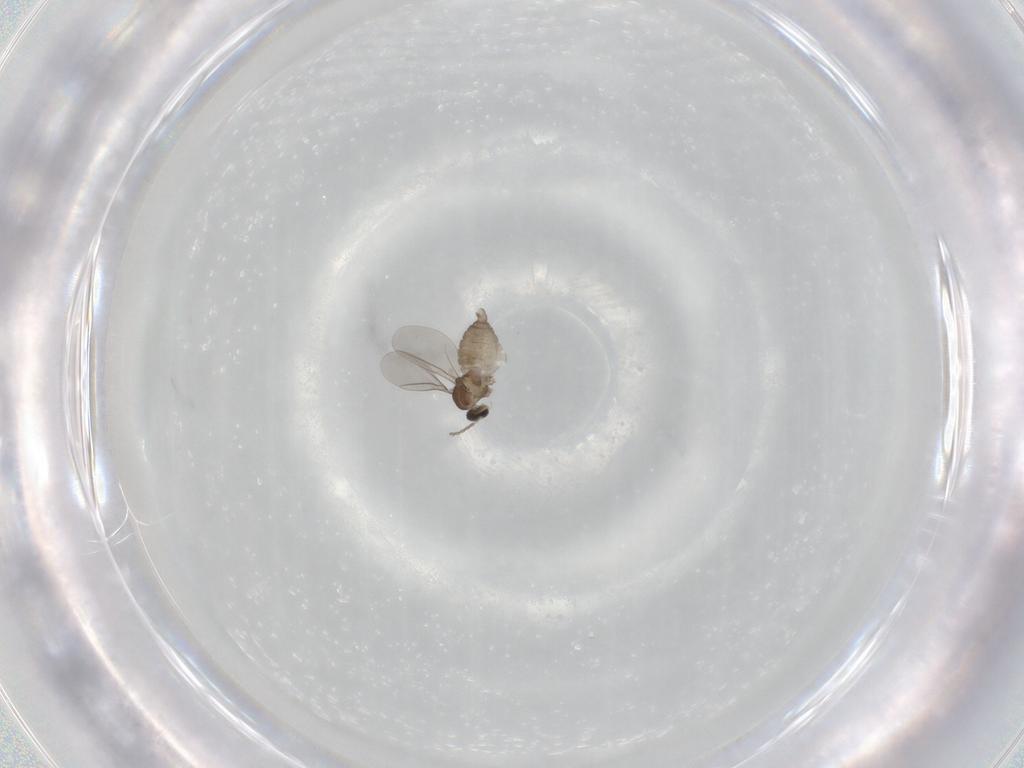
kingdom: Animalia
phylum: Arthropoda
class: Insecta
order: Diptera
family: Cecidomyiidae
